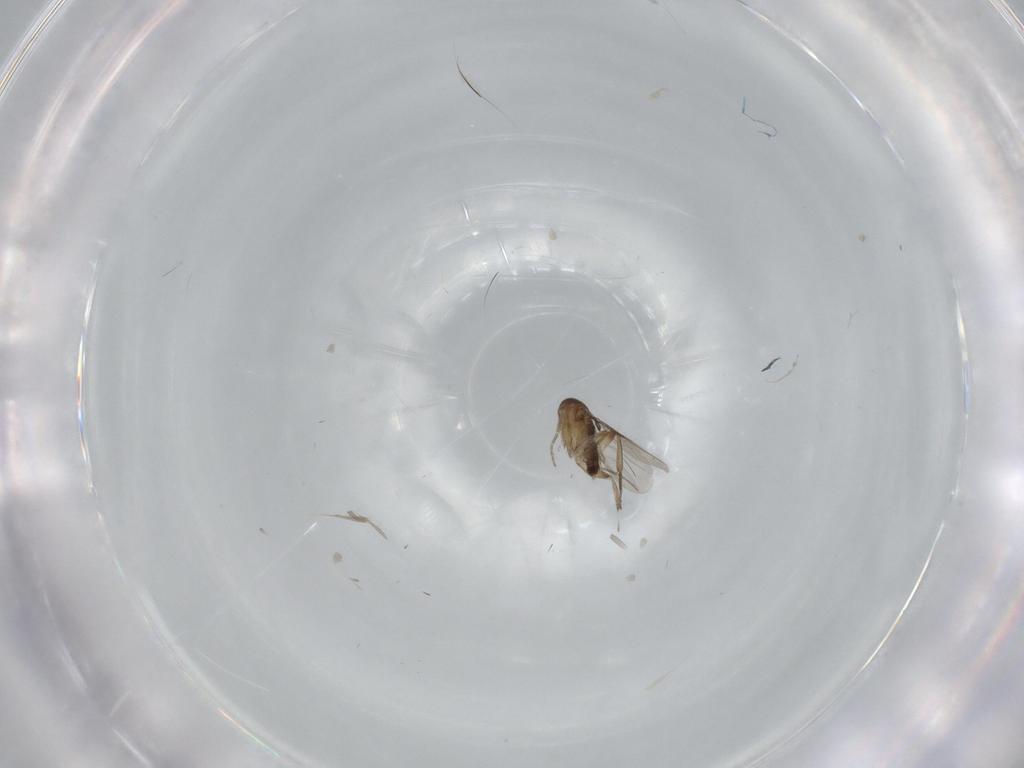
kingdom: Animalia
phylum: Arthropoda
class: Insecta
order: Diptera
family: Phoridae
